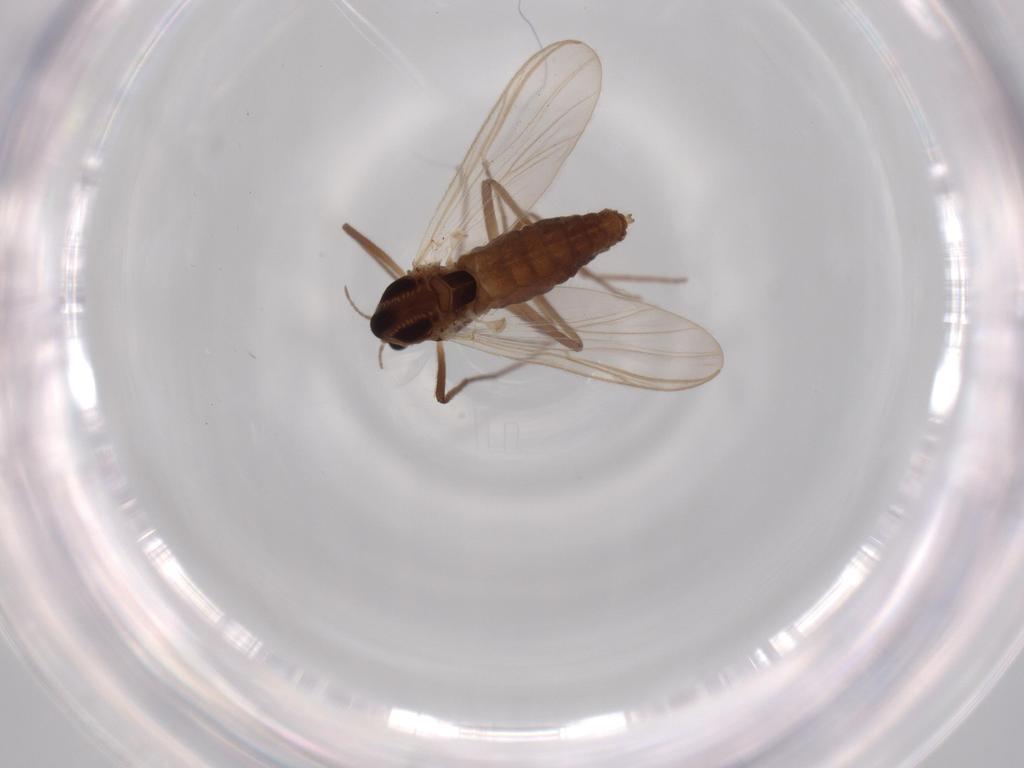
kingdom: Animalia
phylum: Arthropoda
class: Insecta
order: Diptera
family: Chironomidae
